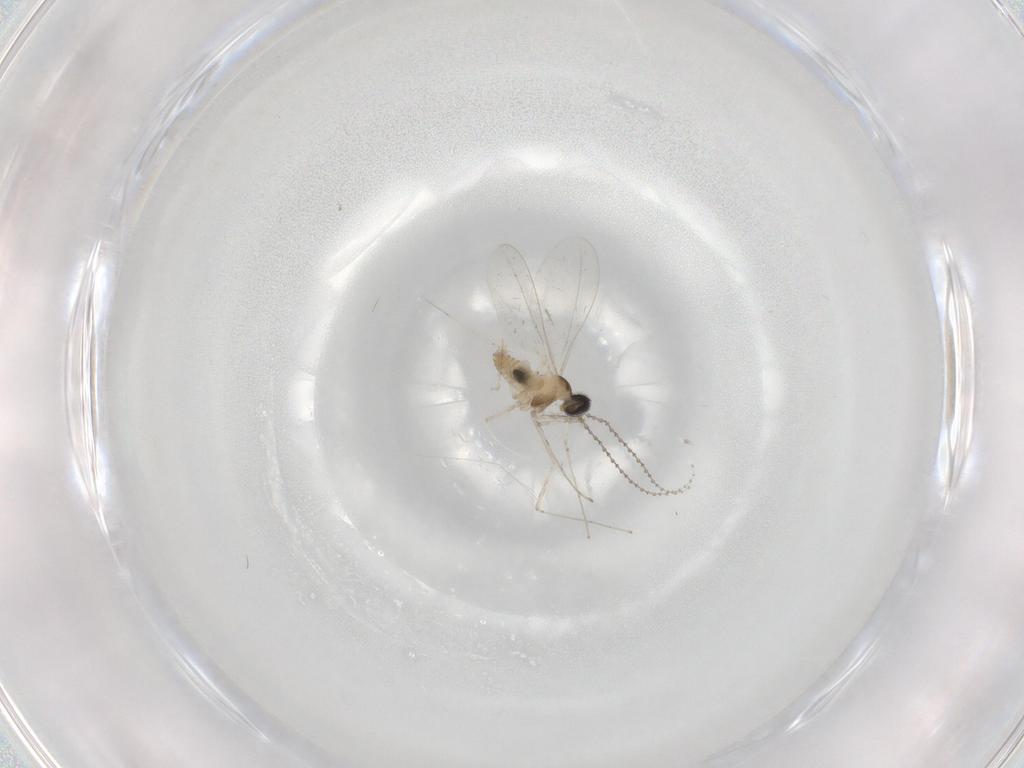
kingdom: Animalia
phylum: Arthropoda
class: Insecta
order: Diptera
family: Cecidomyiidae
